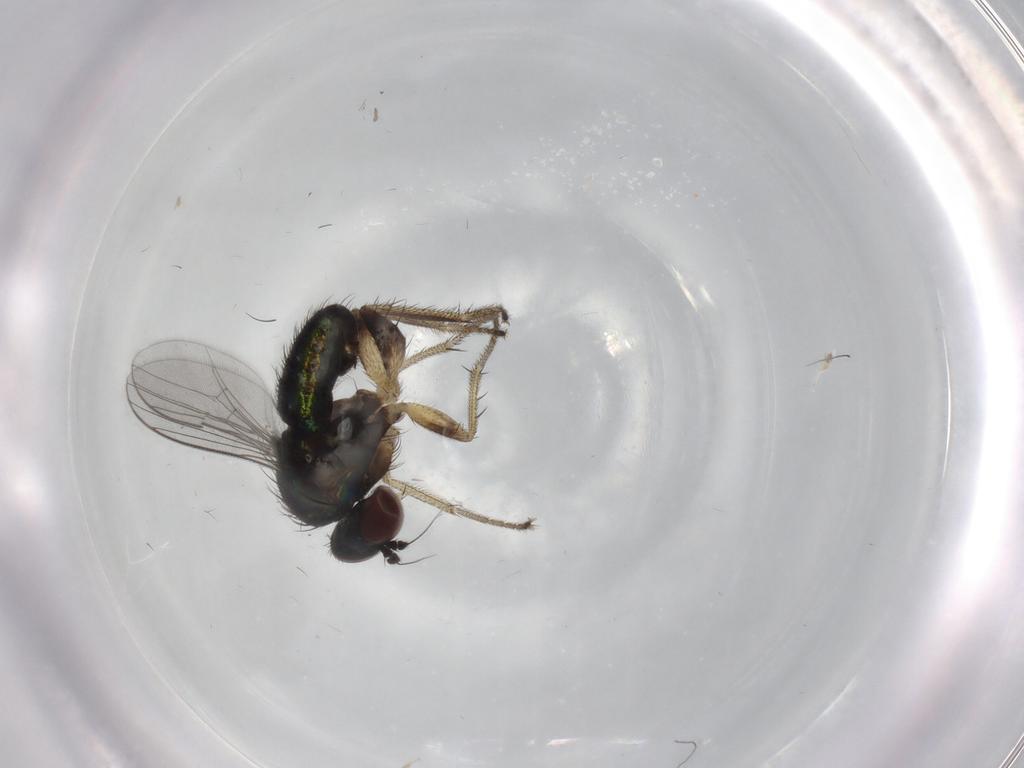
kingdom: Animalia
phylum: Arthropoda
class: Insecta
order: Diptera
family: Dolichopodidae
